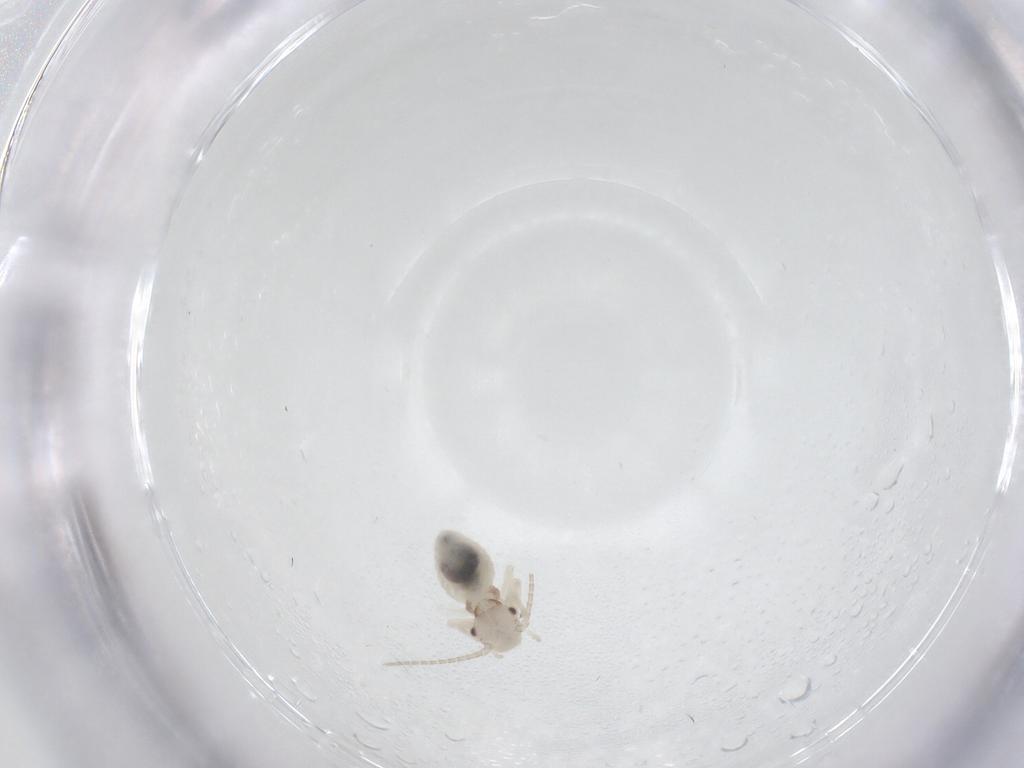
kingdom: Animalia
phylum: Arthropoda
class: Insecta
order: Psocodea
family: Amphipsocidae
